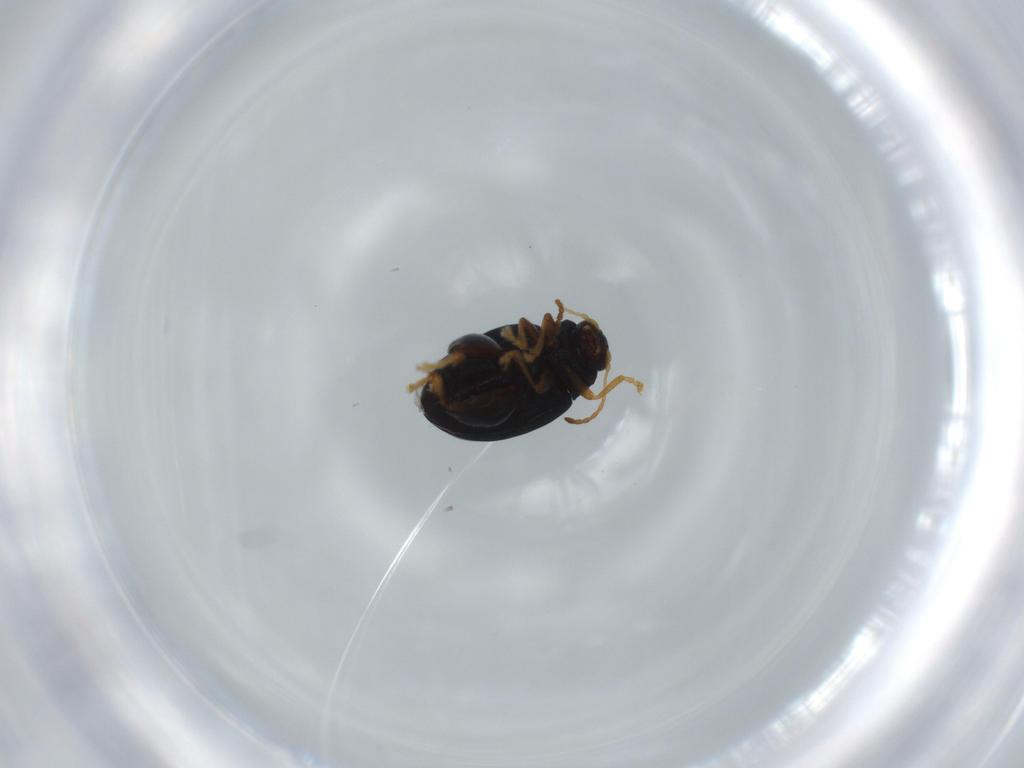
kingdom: Animalia
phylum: Arthropoda
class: Insecta
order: Coleoptera
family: Chrysomelidae
